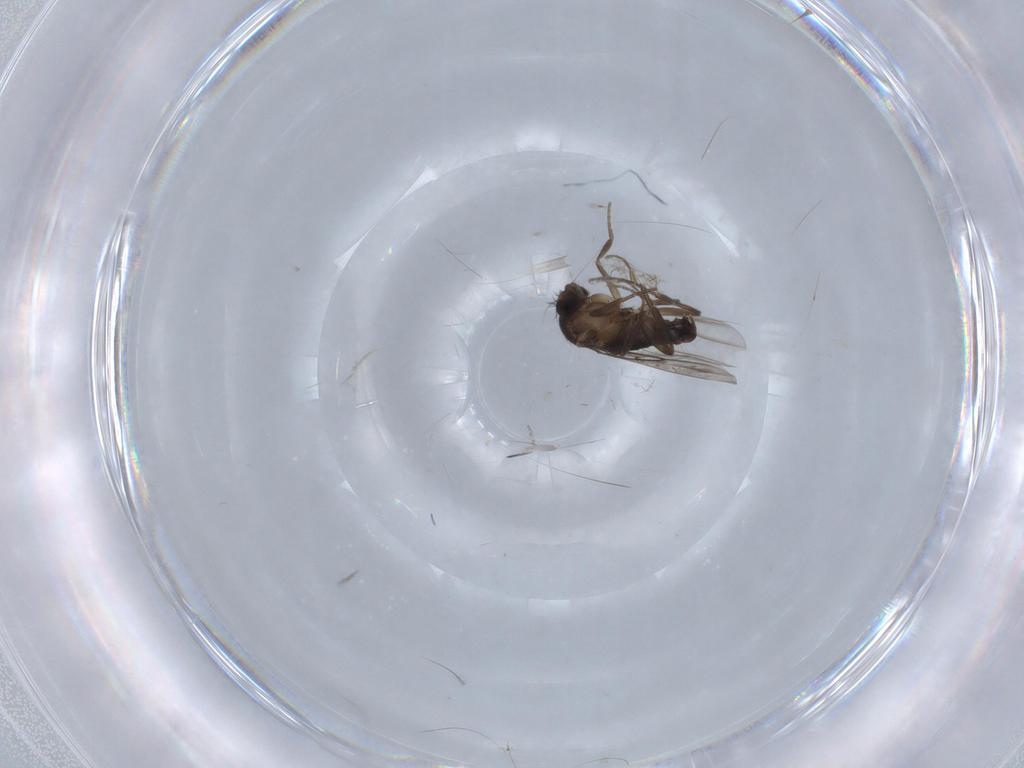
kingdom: Animalia
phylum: Arthropoda
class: Insecta
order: Diptera
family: Phoridae
